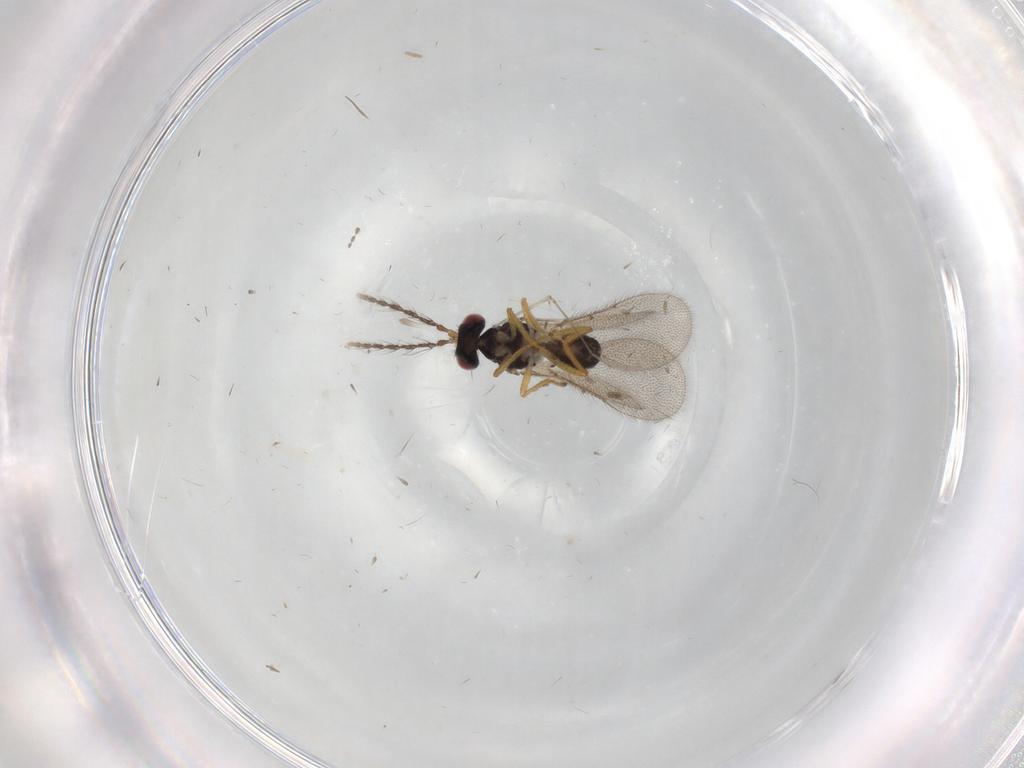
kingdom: Animalia
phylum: Arthropoda
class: Insecta
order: Hymenoptera
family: Eulophidae
